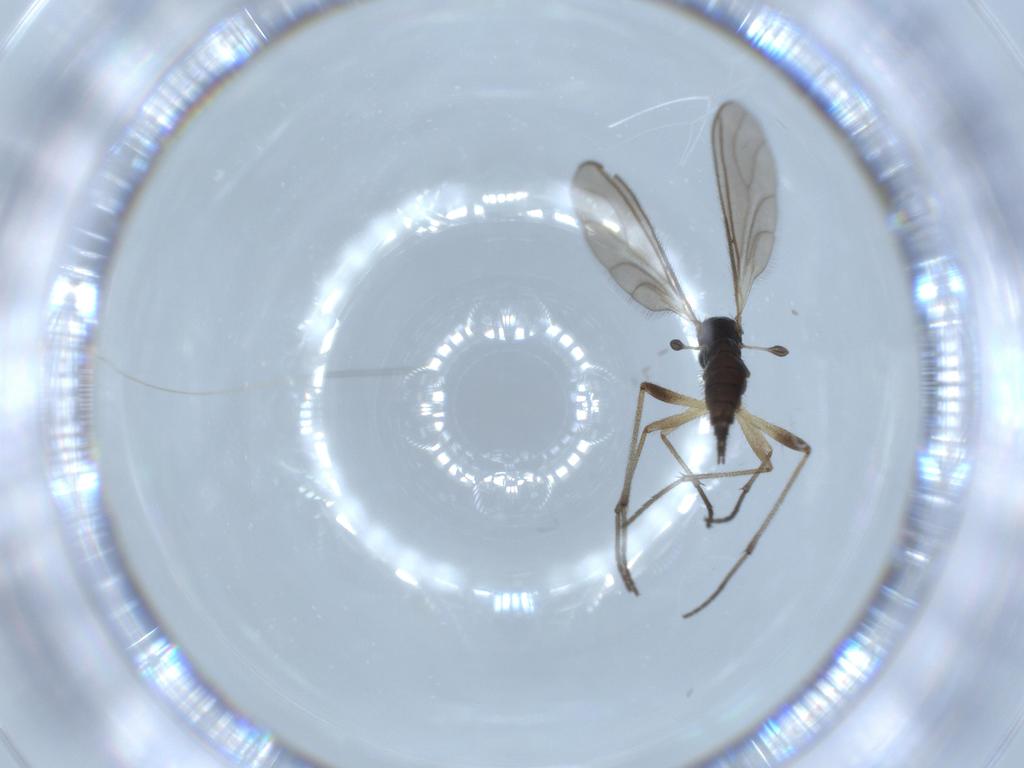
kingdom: Animalia
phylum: Arthropoda
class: Insecta
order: Diptera
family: Sciaridae
